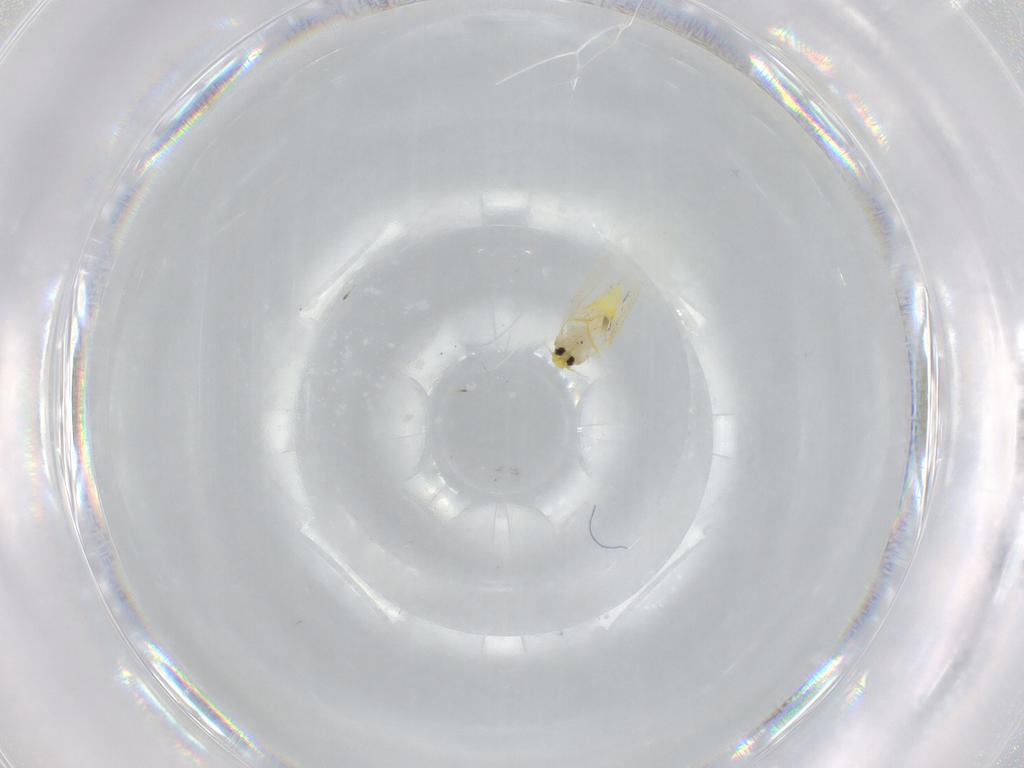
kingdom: Animalia
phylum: Arthropoda
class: Insecta
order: Hemiptera
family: Aleyrodidae
